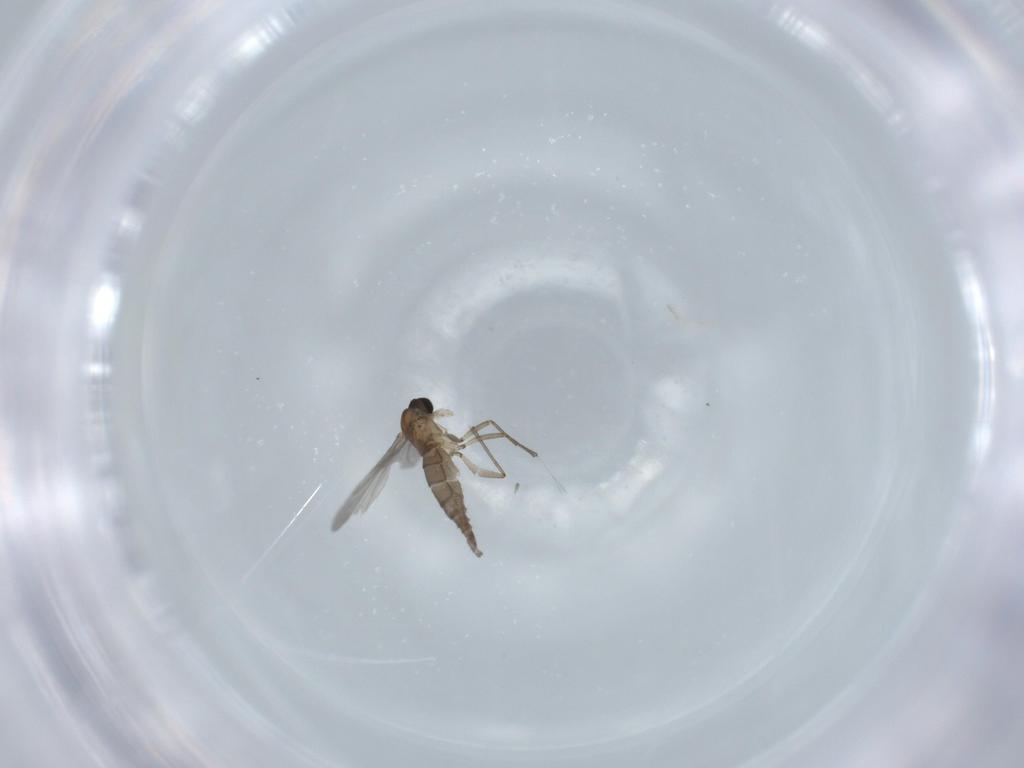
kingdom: Animalia
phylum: Arthropoda
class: Insecta
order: Diptera
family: Sciaridae
